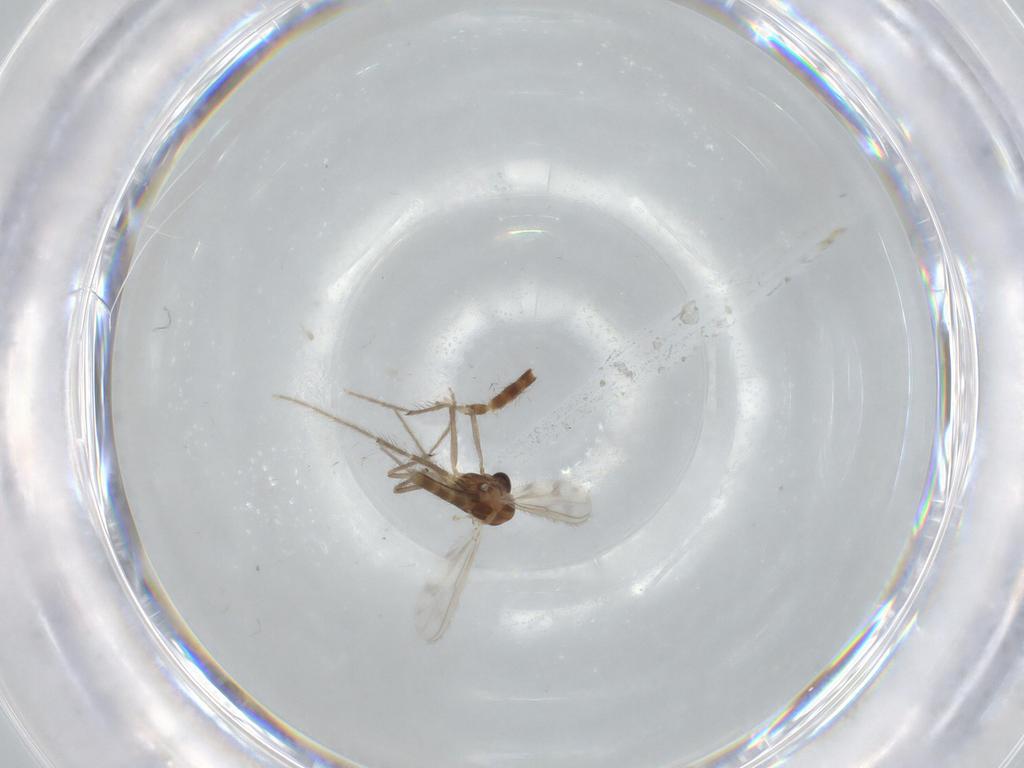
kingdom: Animalia
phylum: Arthropoda
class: Insecta
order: Diptera
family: Chironomidae
